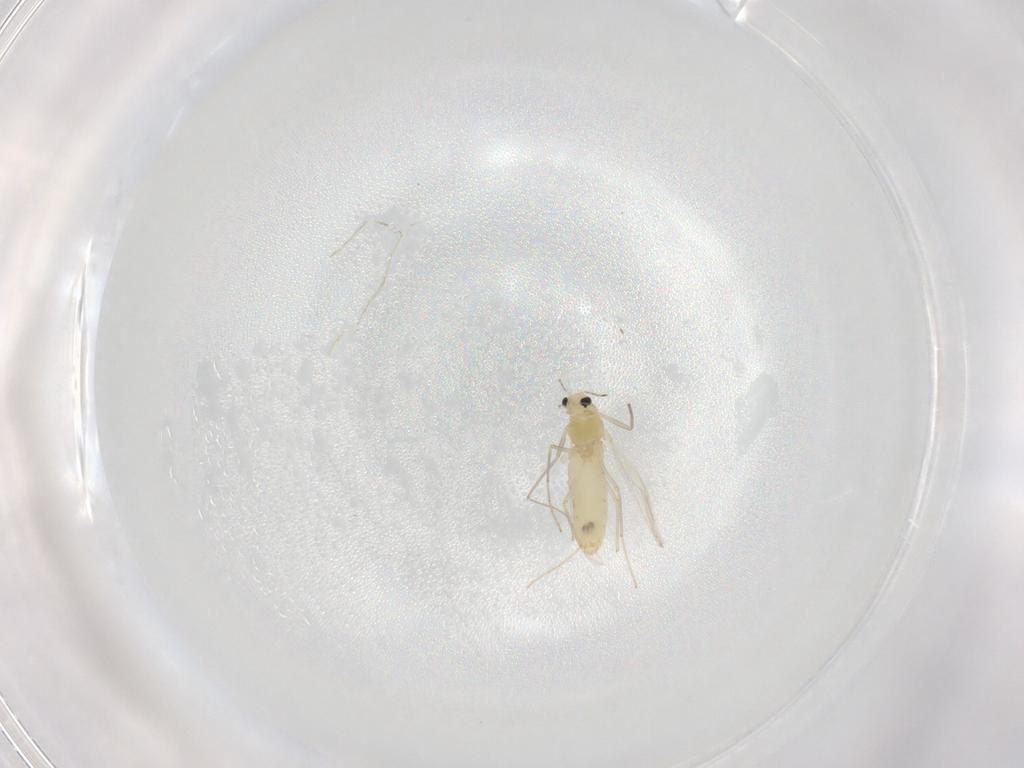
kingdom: Animalia
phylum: Arthropoda
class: Insecta
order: Diptera
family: Chironomidae
